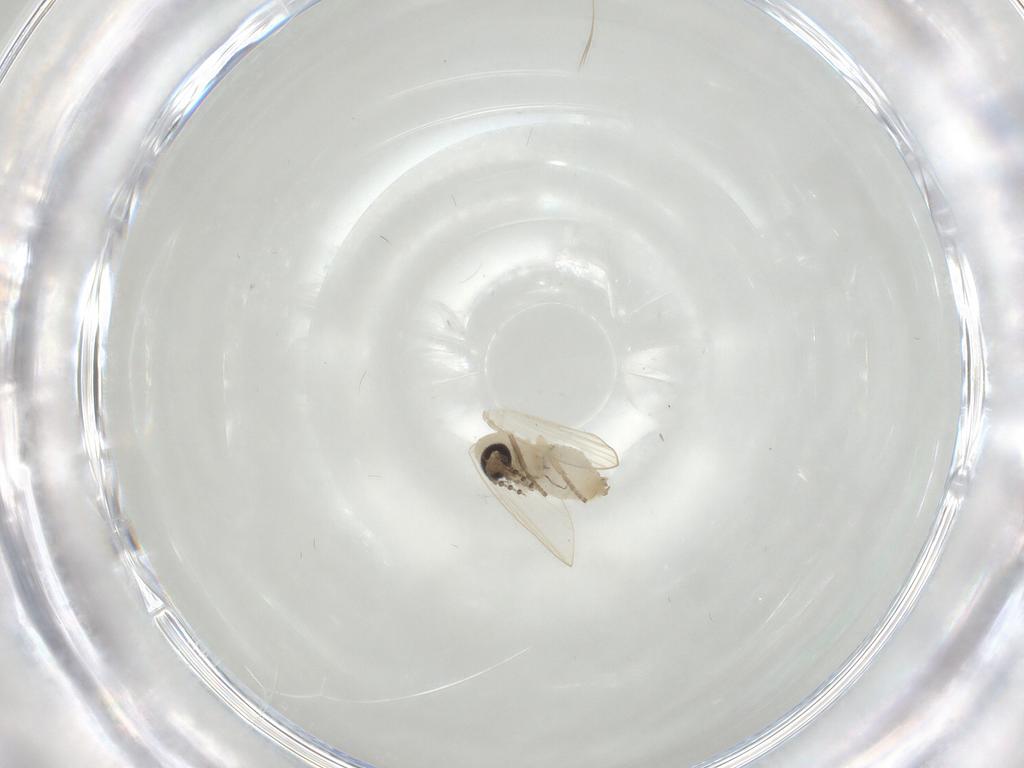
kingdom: Animalia
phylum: Arthropoda
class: Insecta
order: Diptera
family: Psychodidae
